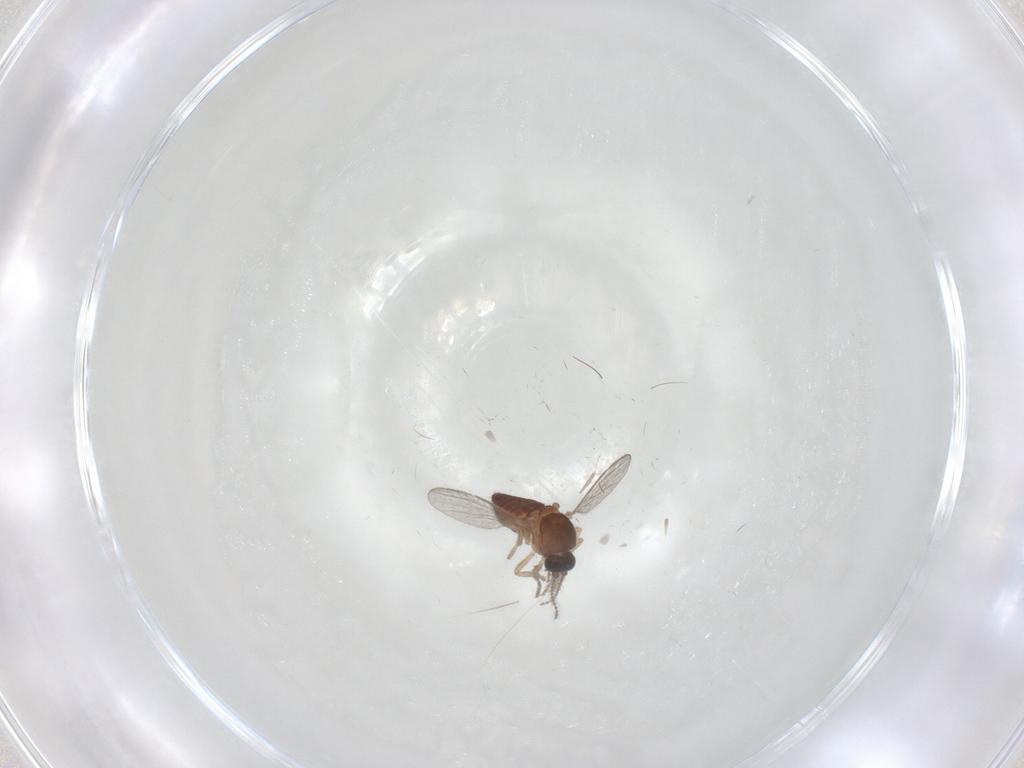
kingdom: Animalia
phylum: Arthropoda
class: Insecta
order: Diptera
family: Ceratopogonidae
